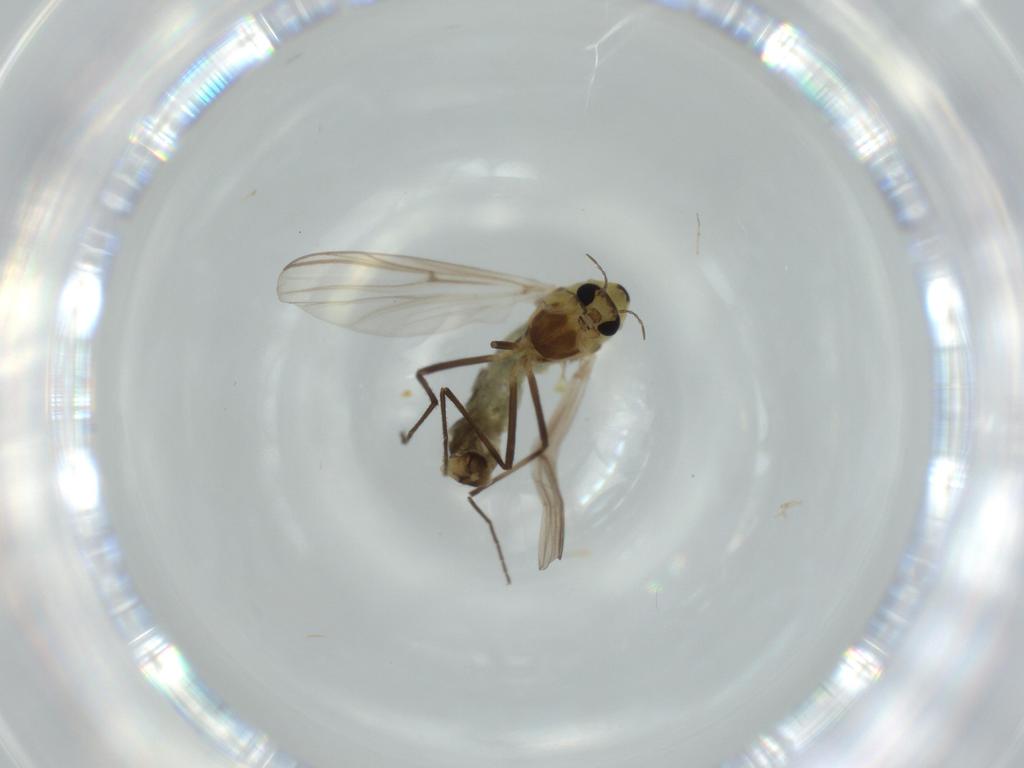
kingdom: Animalia
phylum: Arthropoda
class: Insecta
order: Diptera
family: Chironomidae
